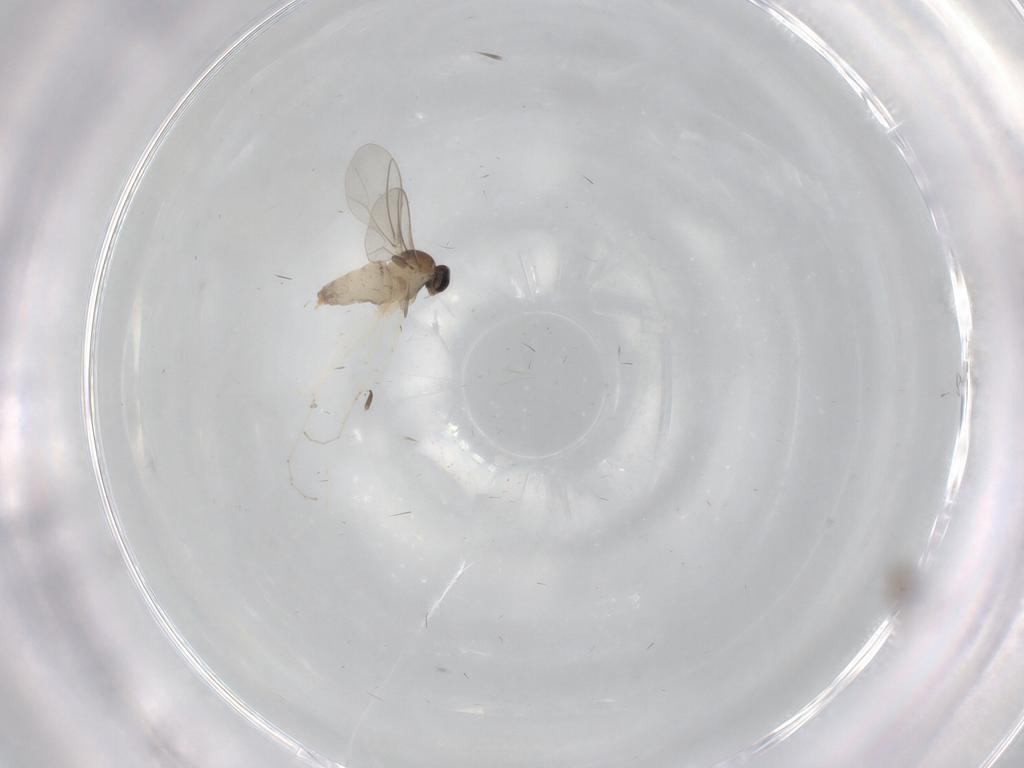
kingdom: Animalia
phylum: Arthropoda
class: Insecta
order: Diptera
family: Cecidomyiidae
